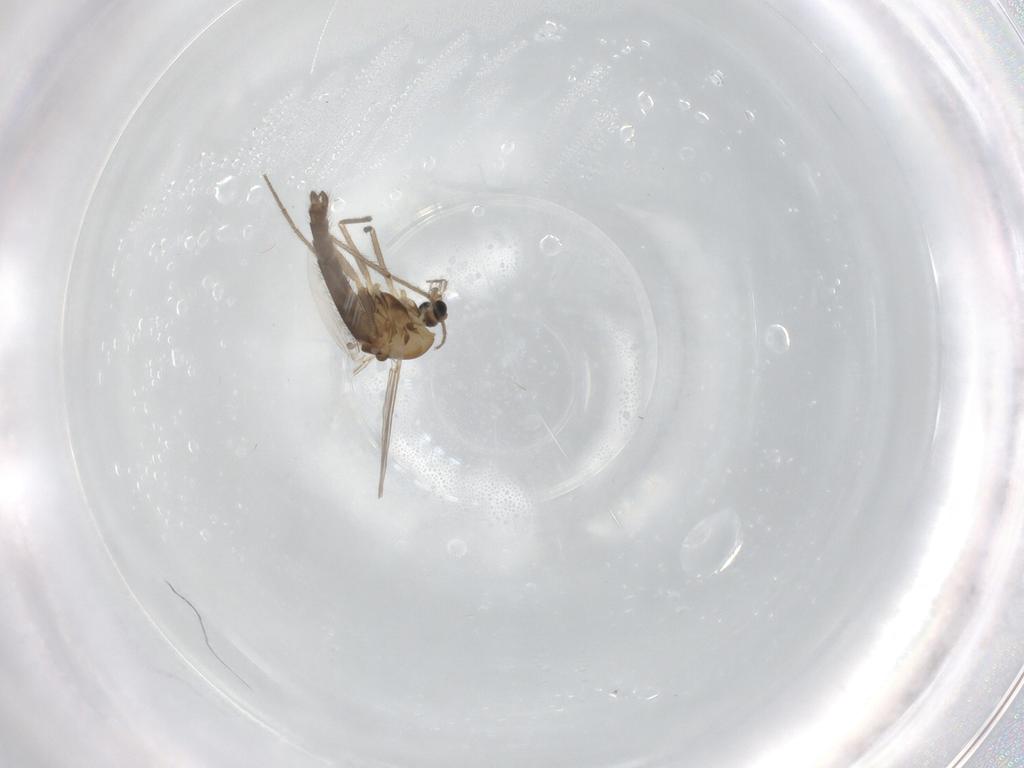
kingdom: Animalia
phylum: Arthropoda
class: Insecta
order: Diptera
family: Chironomidae
